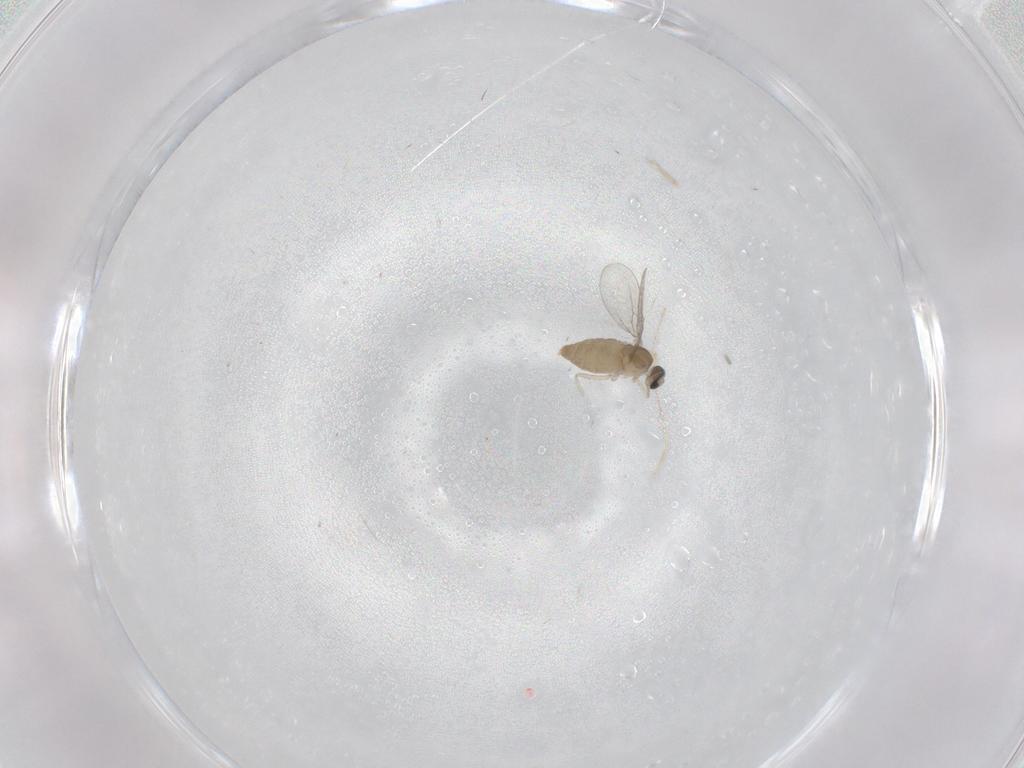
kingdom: Animalia
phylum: Arthropoda
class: Insecta
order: Diptera
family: Cecidomyiidae
